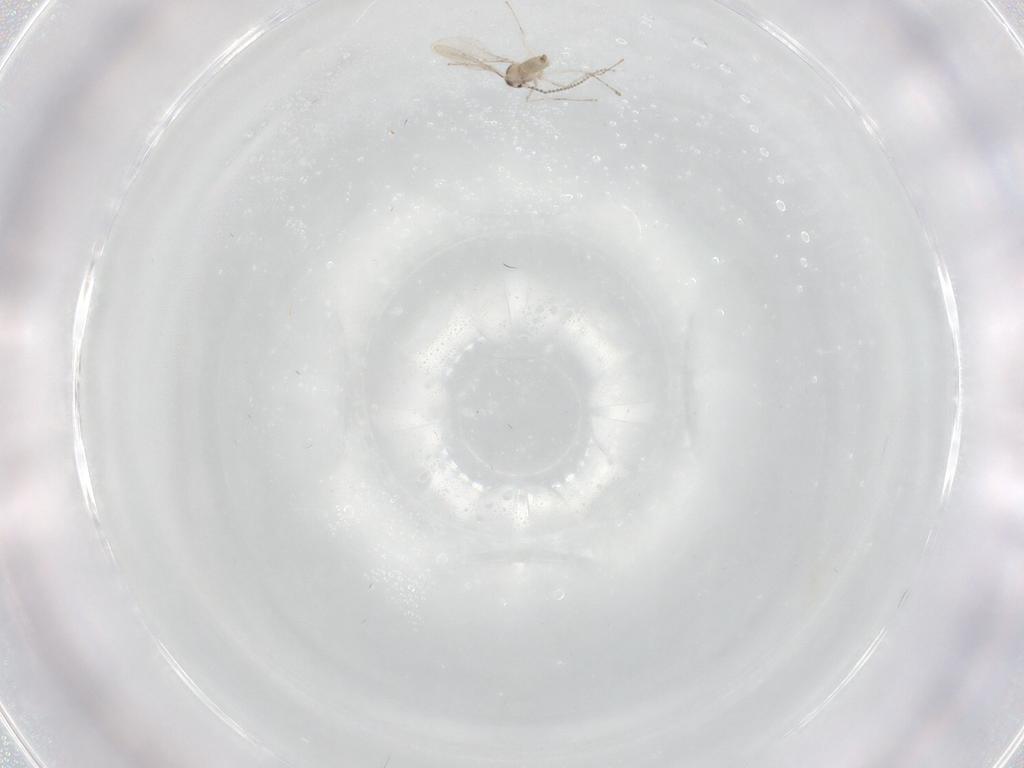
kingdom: Animalia
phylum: Arthropoda
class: Insecta
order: Diptera
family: Cecidomyiidae
